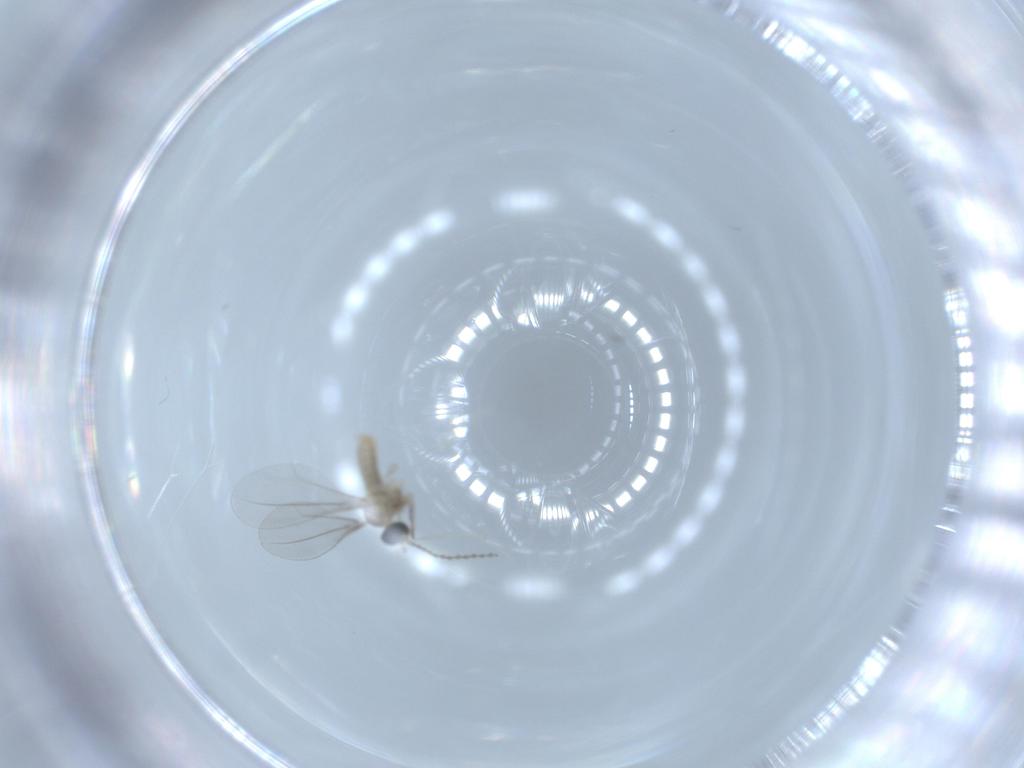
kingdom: Animalia
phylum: Arthropoda
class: Insecta
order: Diptera
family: Cecidomyiidae
